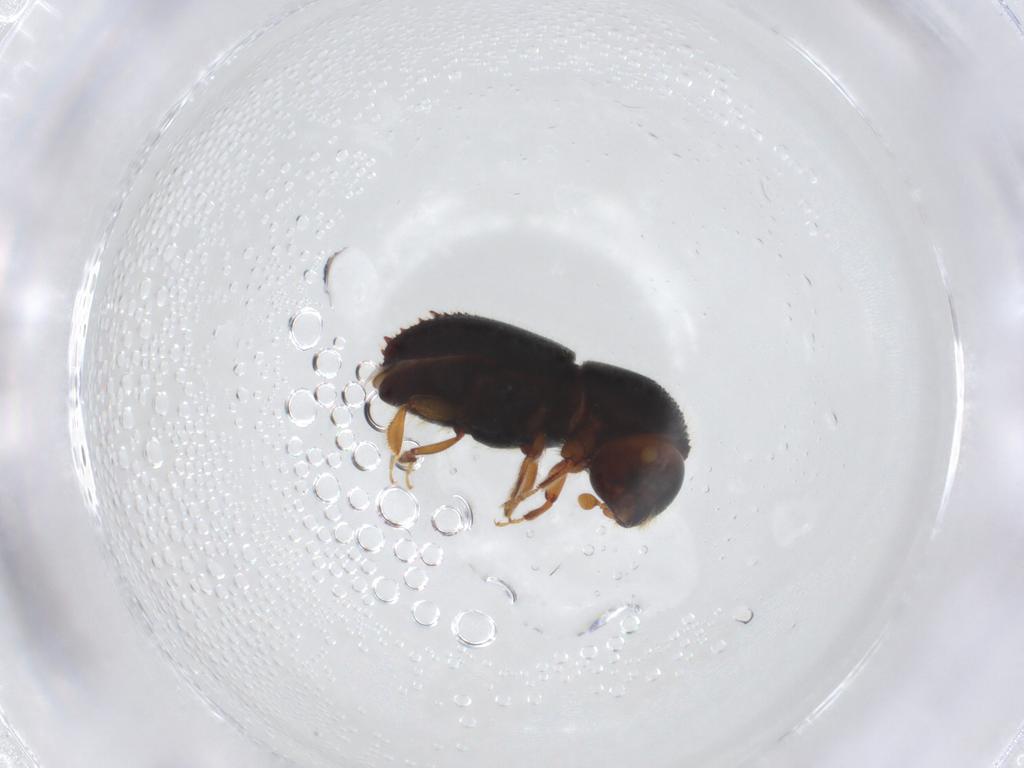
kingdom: Animalia
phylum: Arthropoda
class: Insecta
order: Coleoptera
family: Curculionidae
